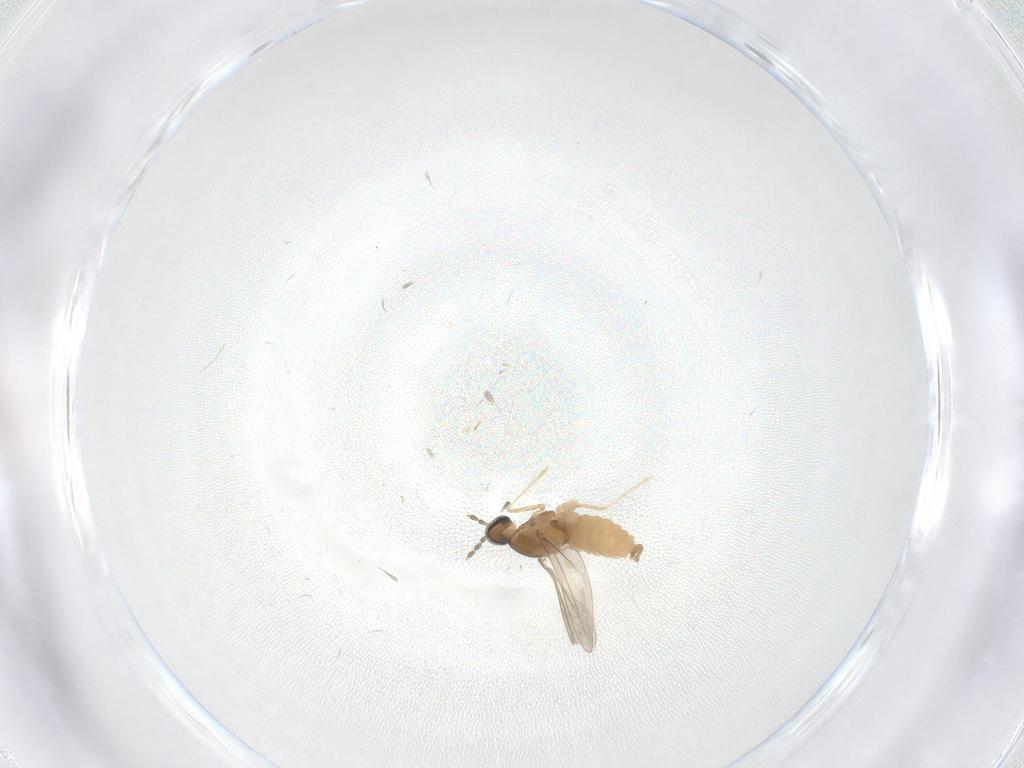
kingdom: Animalia
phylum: Arthropoda
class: Insecta
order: Diptera
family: Cecidomyiidae
